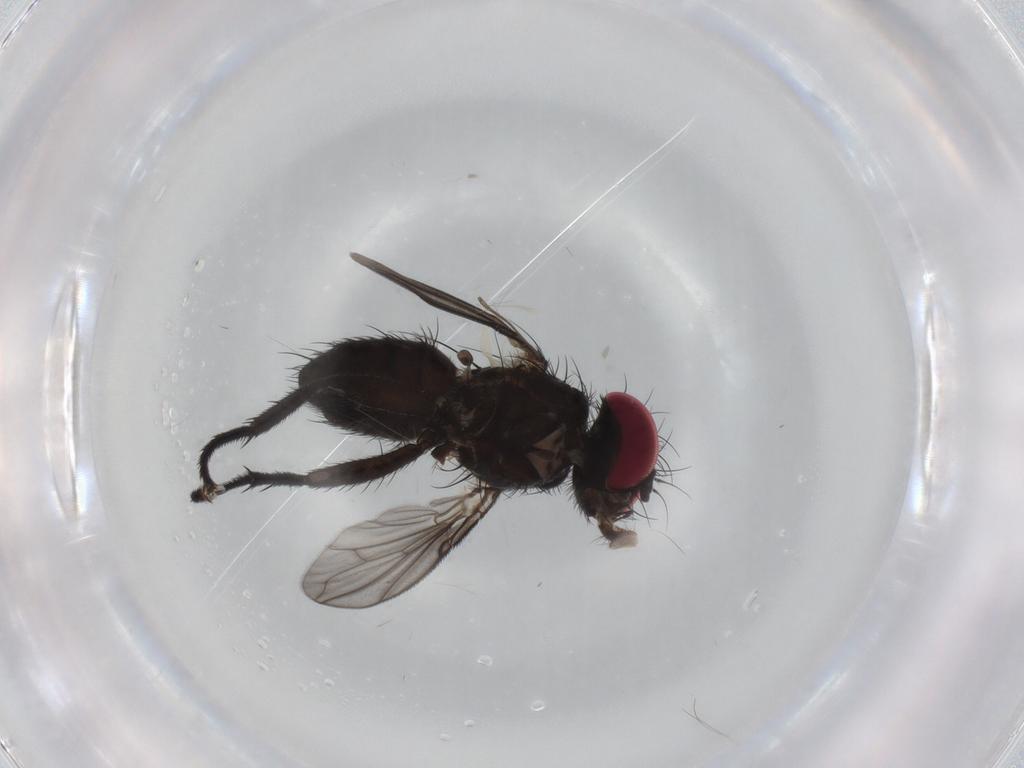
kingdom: Animalia
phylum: Arthropoda
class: Insecta
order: Diptera
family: Calliphoridae
